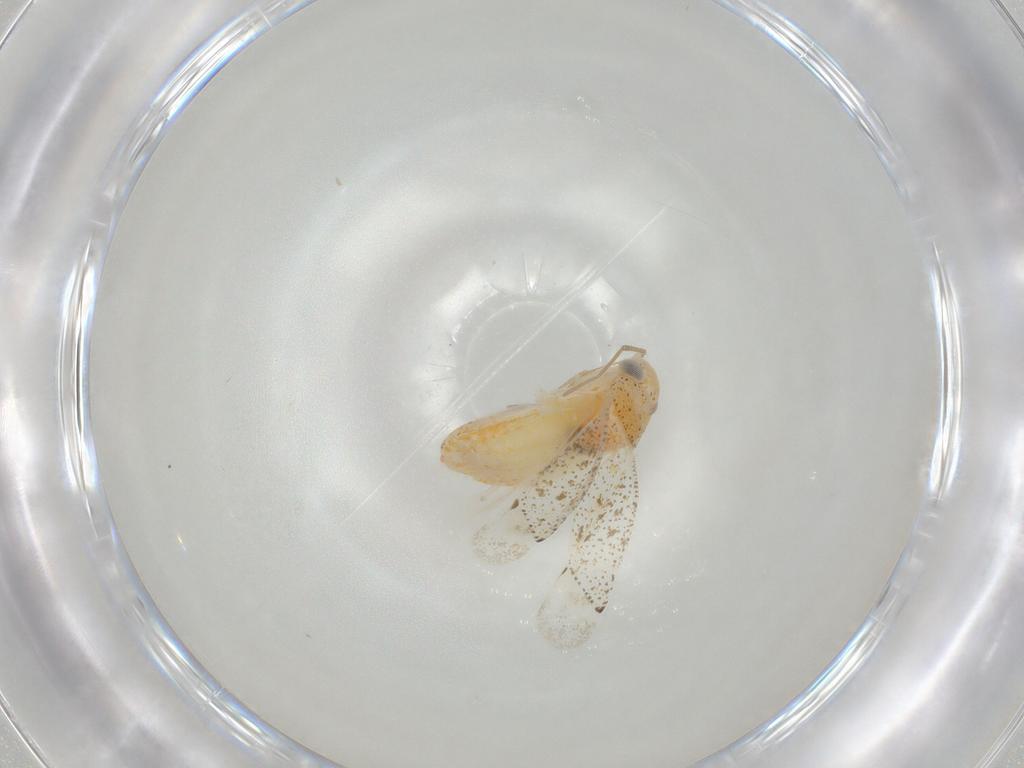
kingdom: Animalia
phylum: Arthropoda
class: Insecta
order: Hemiptera
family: Miridae
